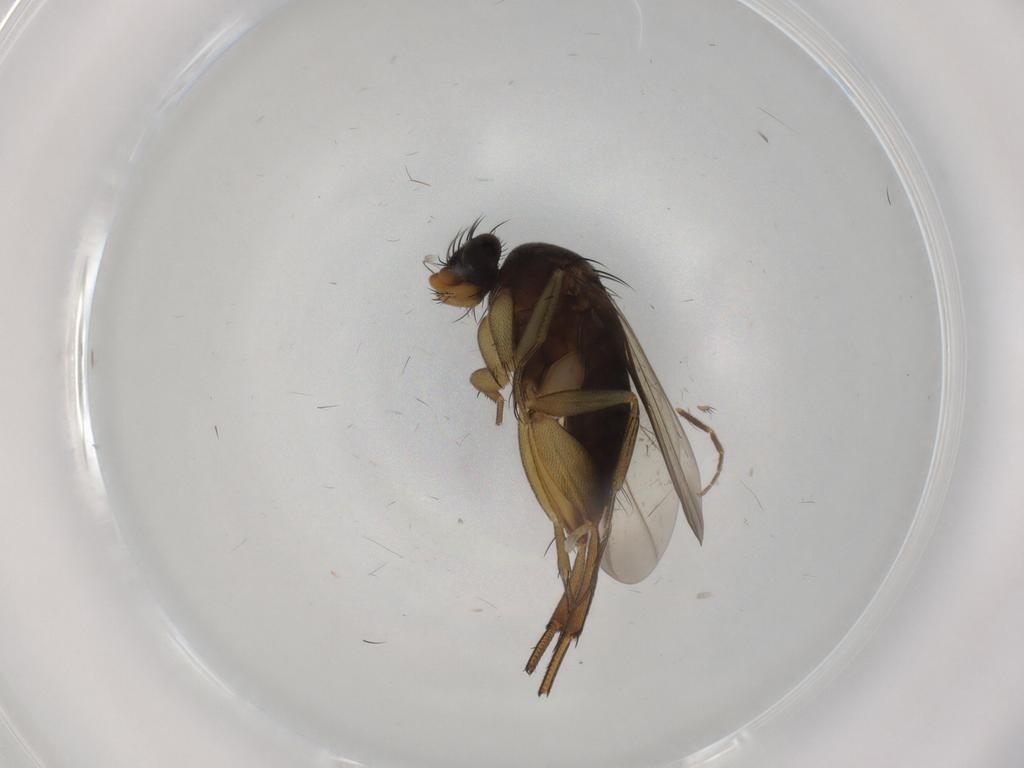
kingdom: Animalia
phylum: Arthropoda
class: Insecta
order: Diptera
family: Phoridae
